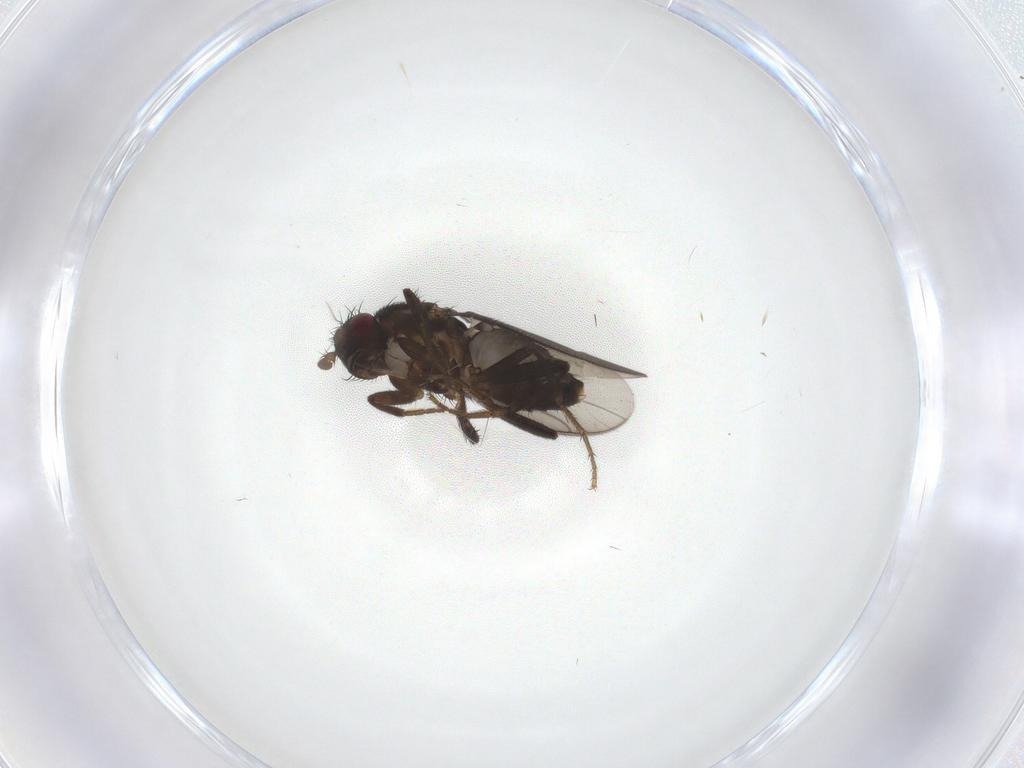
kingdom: Animalia
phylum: Arthropoda
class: Insecta
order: Diptera
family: Sphaeroceridae
